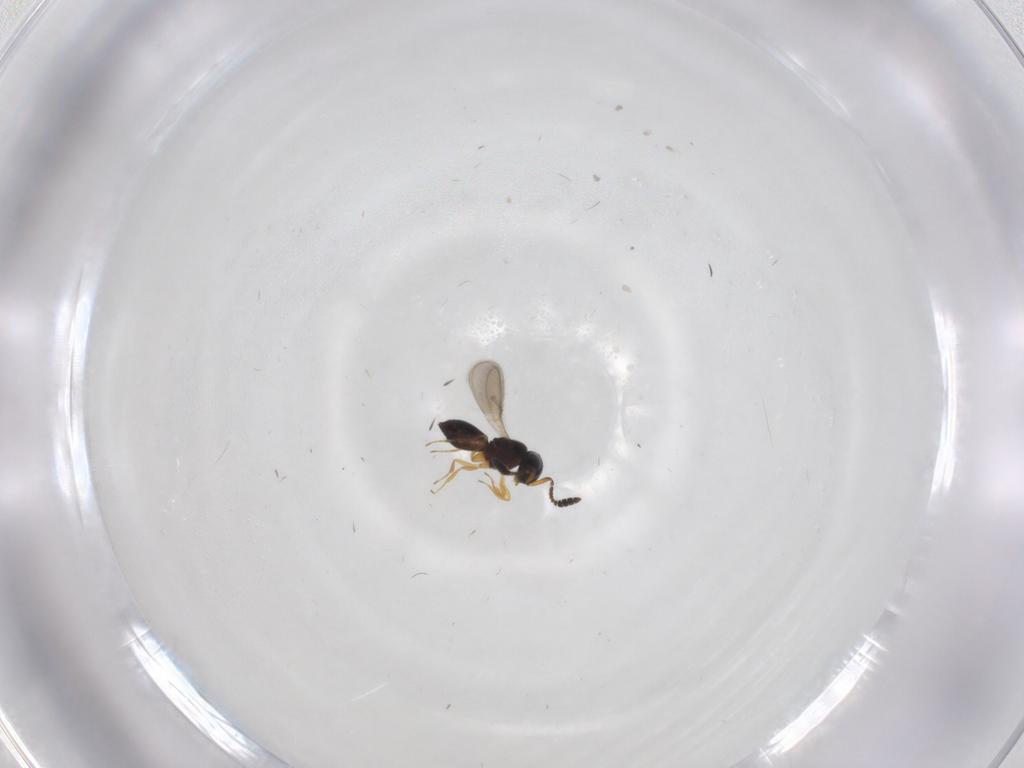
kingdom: Animalia
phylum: Arthropoda
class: Insecta
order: Hymenoptera
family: Scelionidae
